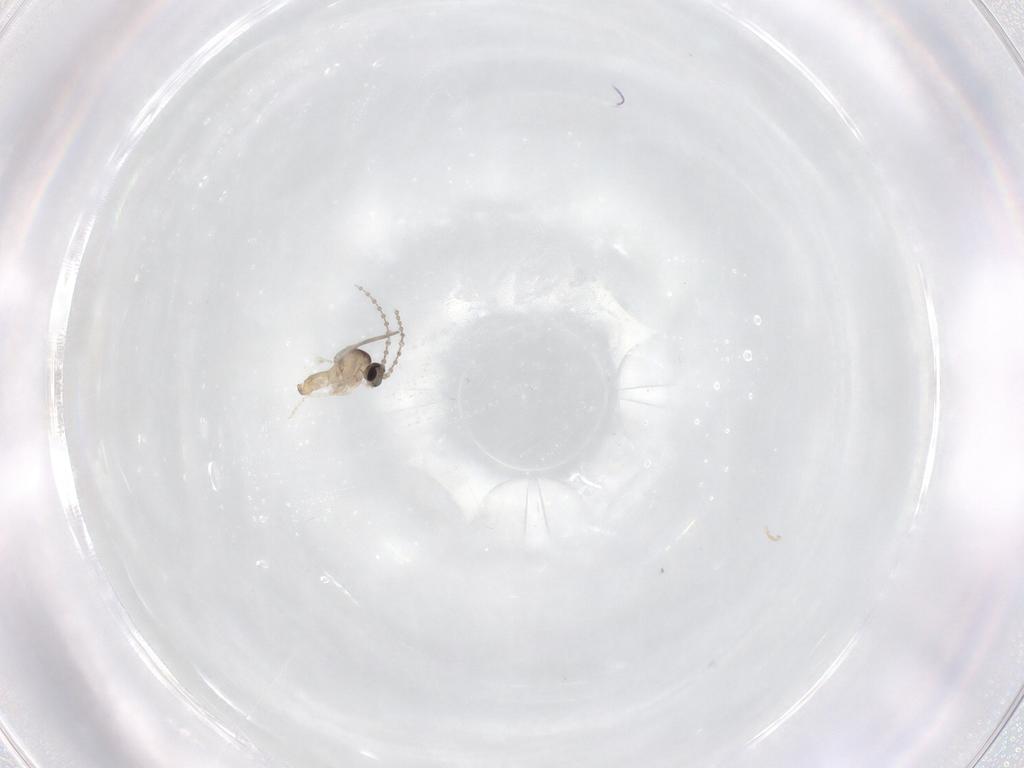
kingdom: Animalia
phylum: Arthropoda
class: Insecta
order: Diptera
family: Cecidomyiidae
